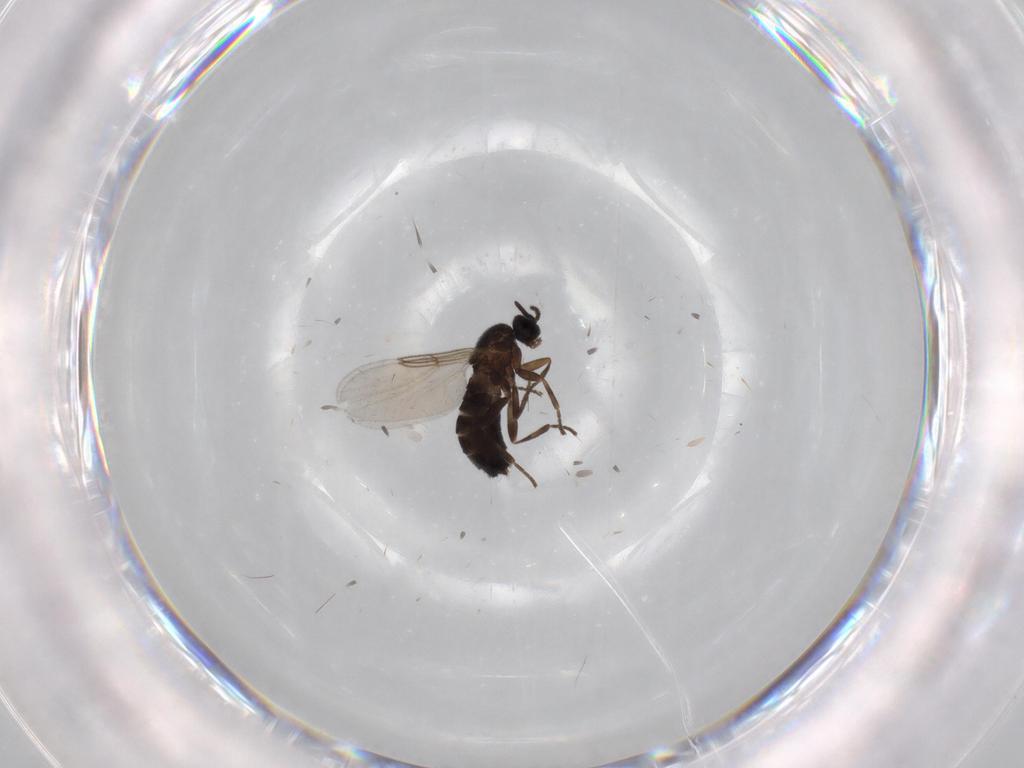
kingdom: Animalia
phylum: Arthropoda
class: Insecta
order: Diptera
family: Scatopsidae
